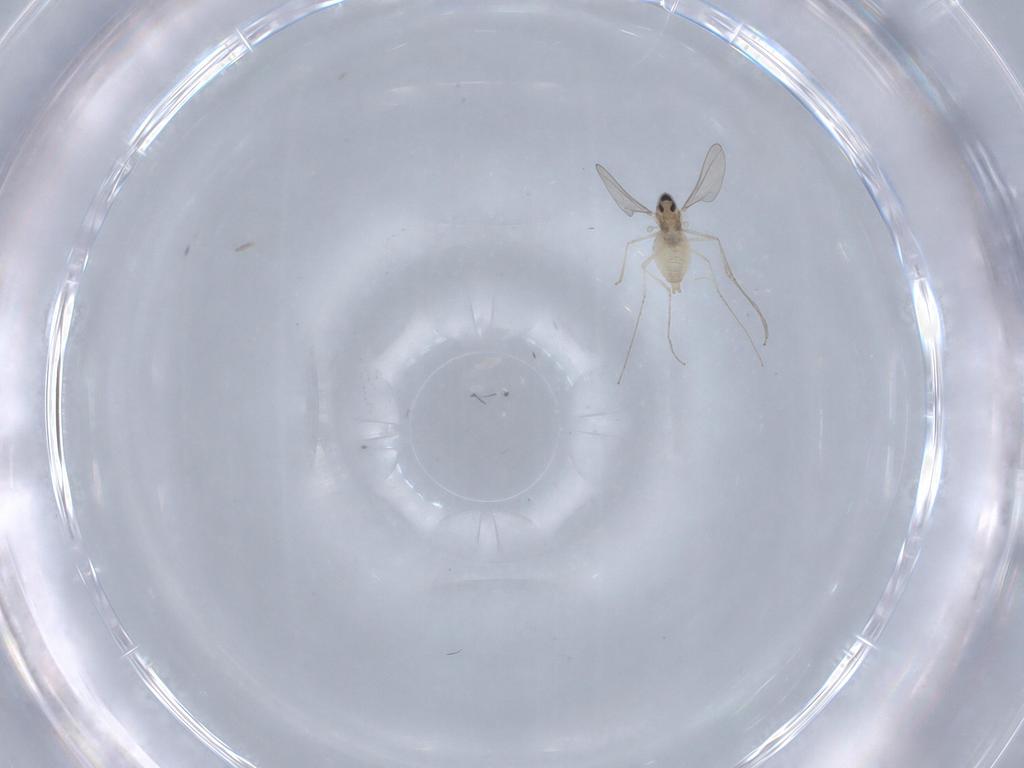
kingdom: Animalia
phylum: Arthropoda
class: Insecta
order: Diptera
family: Cecidomyiidae
